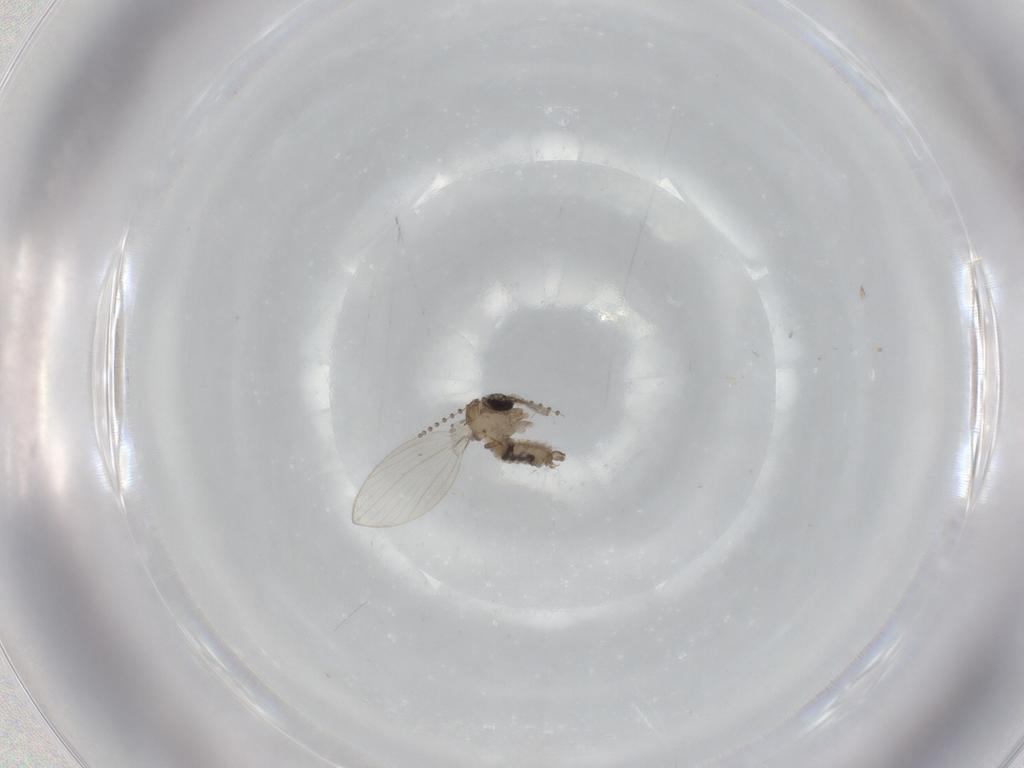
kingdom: Animalia
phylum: Arthropoda
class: Insecta
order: Diptera
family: Psychodidae
